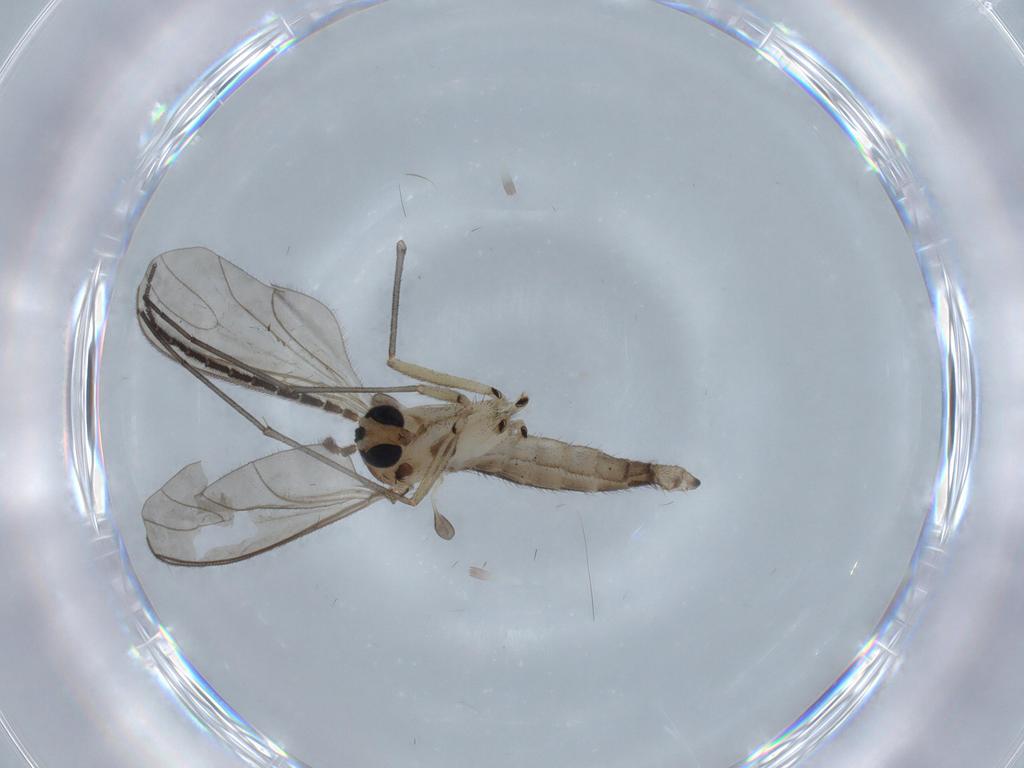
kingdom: Animalia
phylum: Arthropoda
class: Insecta
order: Diptera
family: Sciaridae
